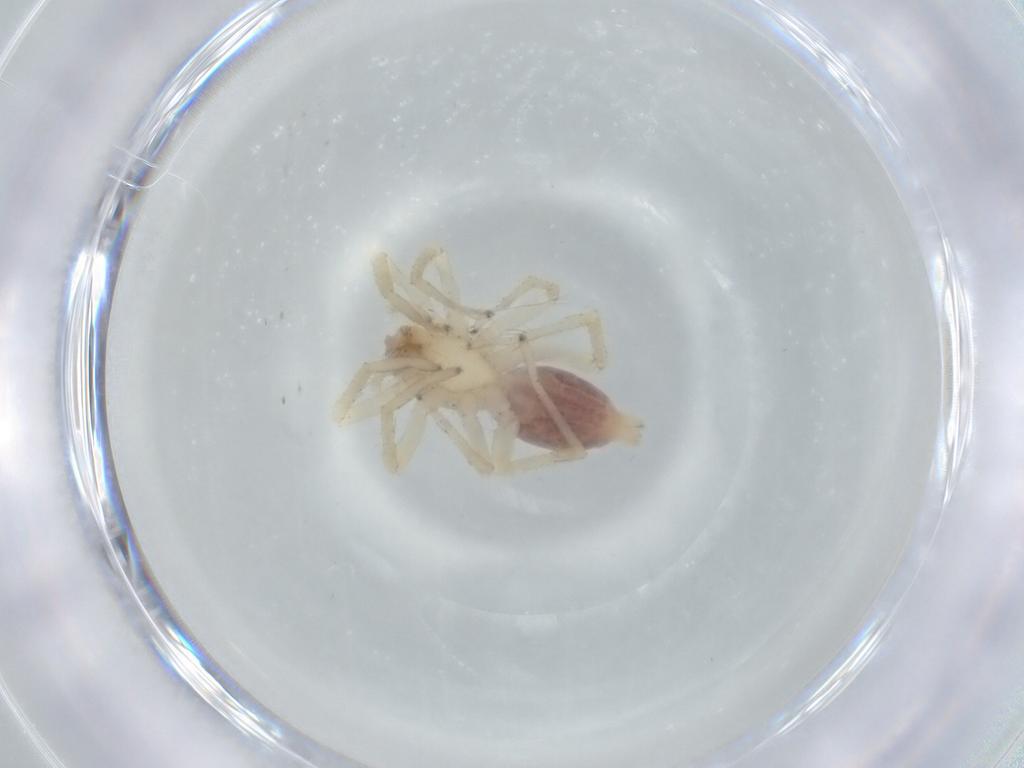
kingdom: Animalia
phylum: Arthropoda
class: Arachnida
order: Araneae
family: Clubionidae
